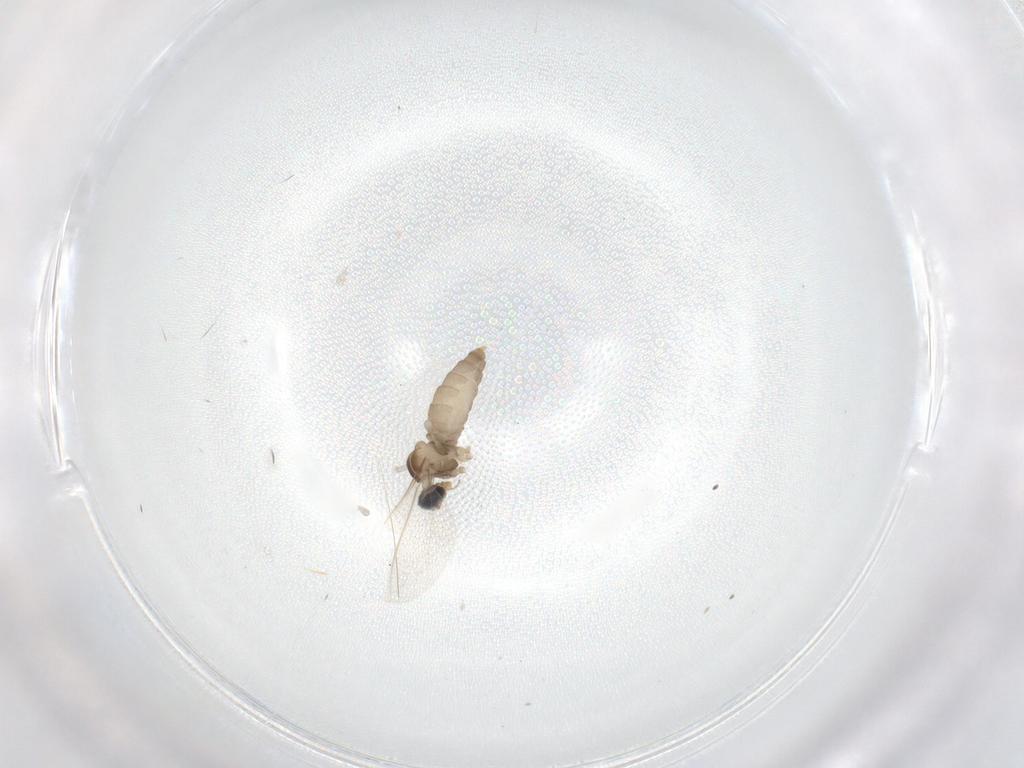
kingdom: Animalia
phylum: Arthropoda
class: Insecta
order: Diptera
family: Cecidomyiidae
